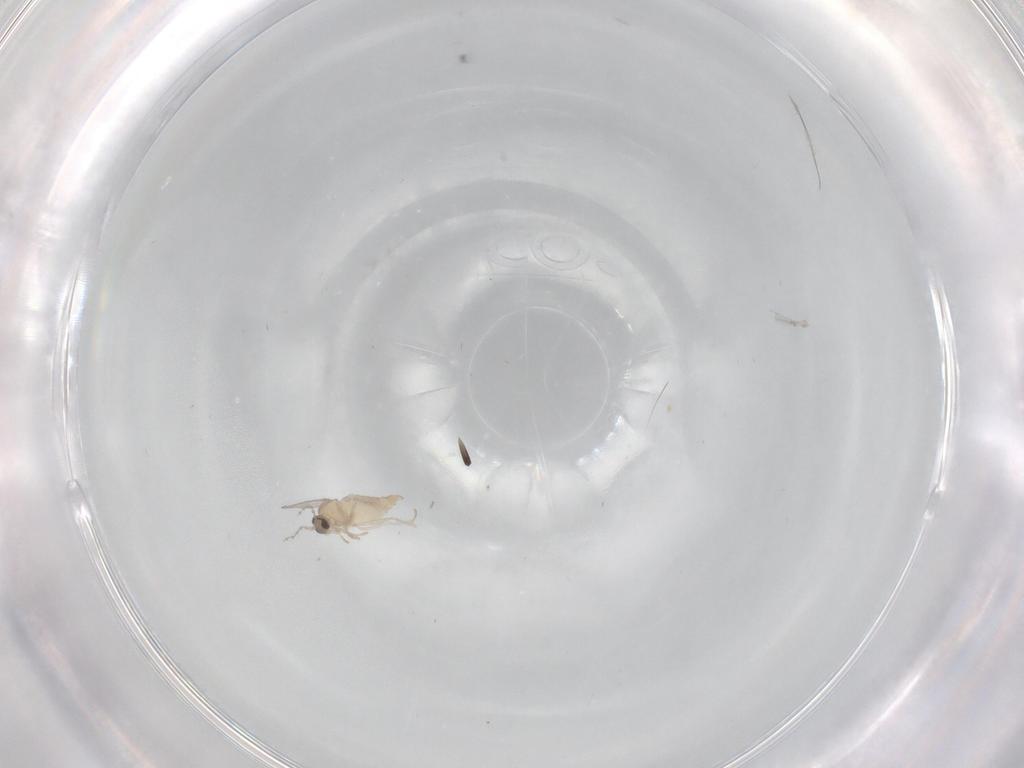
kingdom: Animalia
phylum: Arthropoda
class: Insecta
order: Diptera
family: Cecidomyiidae
